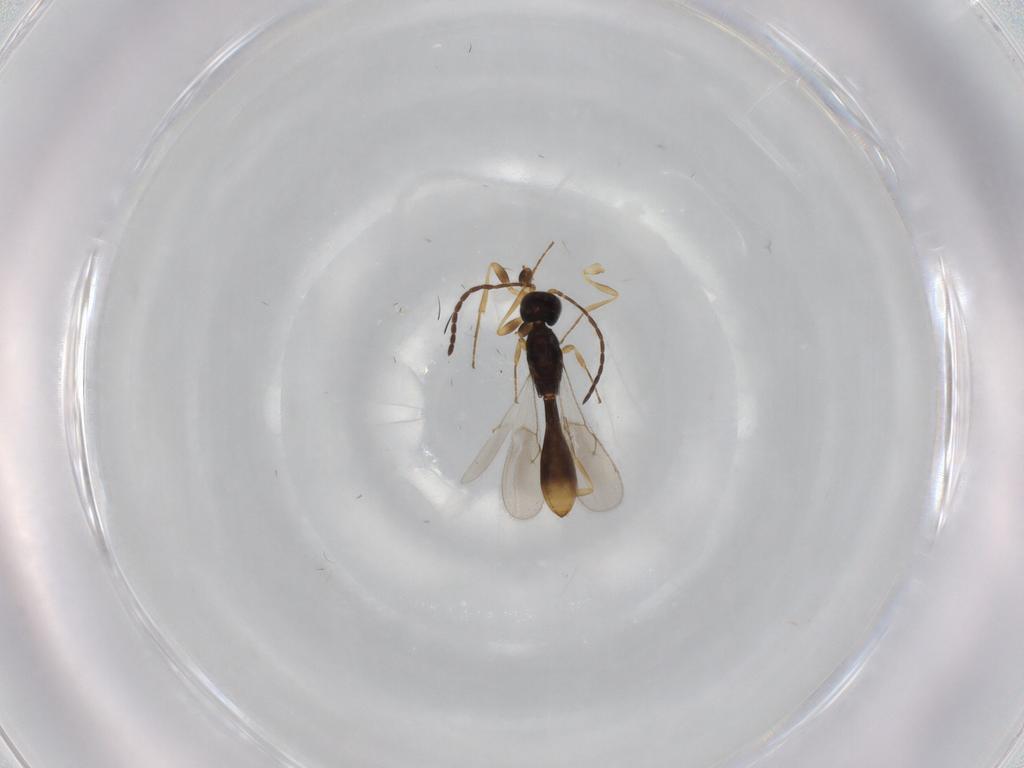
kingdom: Animalia
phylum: Arthropoda
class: Insecta
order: Hymenoptera
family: Scelionidae
